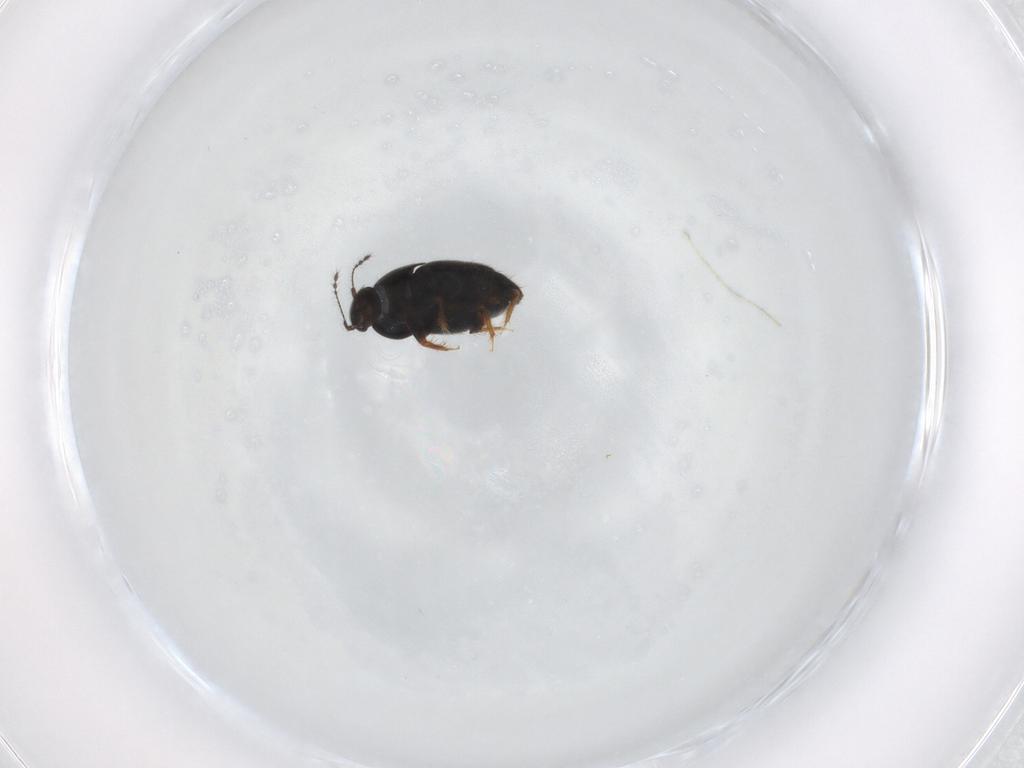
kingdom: Animalia
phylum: Arthropoda
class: Insecta
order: Coleoptera
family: Ptiliidae
